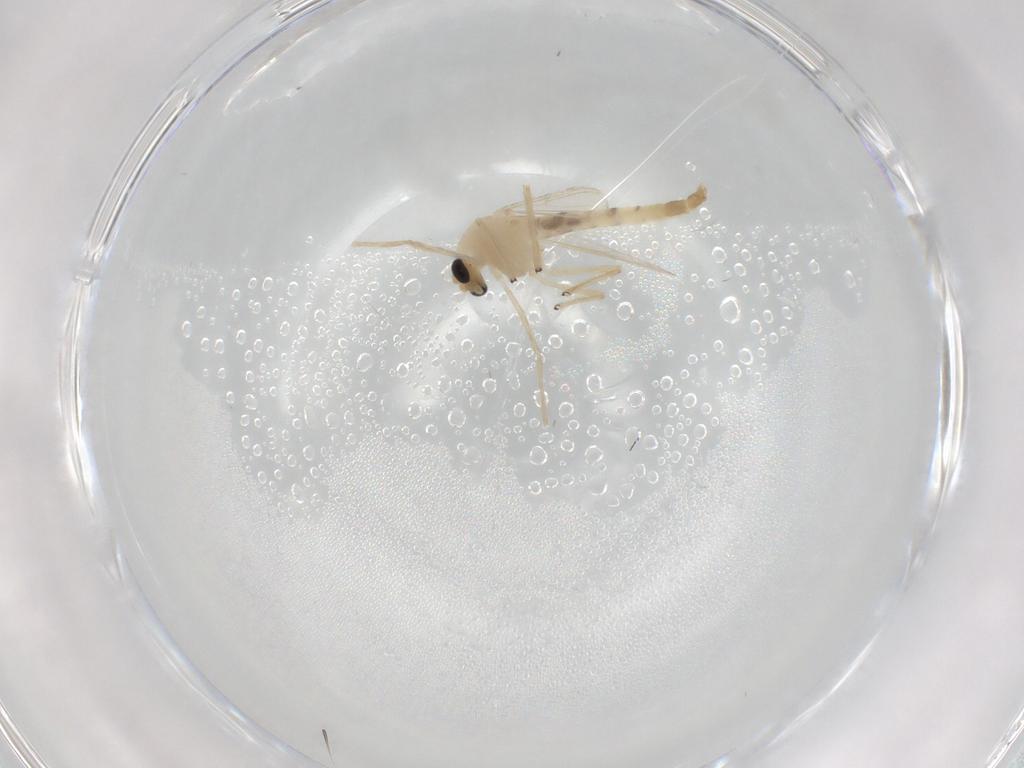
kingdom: Animalia
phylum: Arthropoda
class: Insecta
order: Diptera
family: Chironomidae
